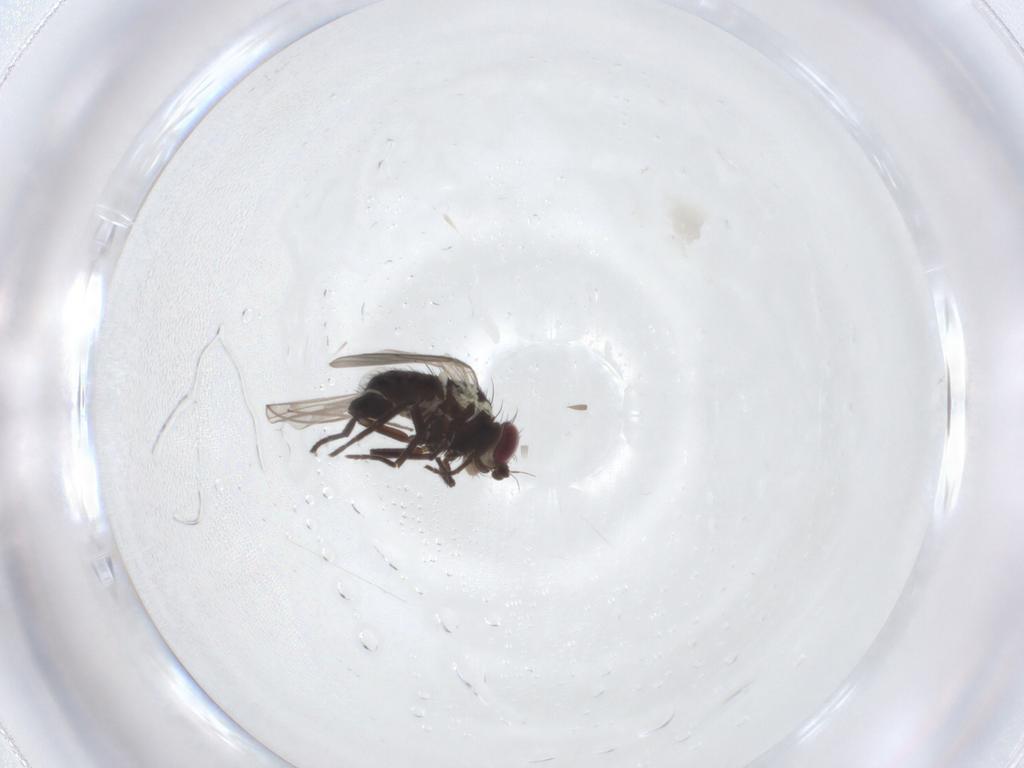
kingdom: Animalia
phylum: Arthropoda
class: Insecta
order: Diptera
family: Agromyzidae
